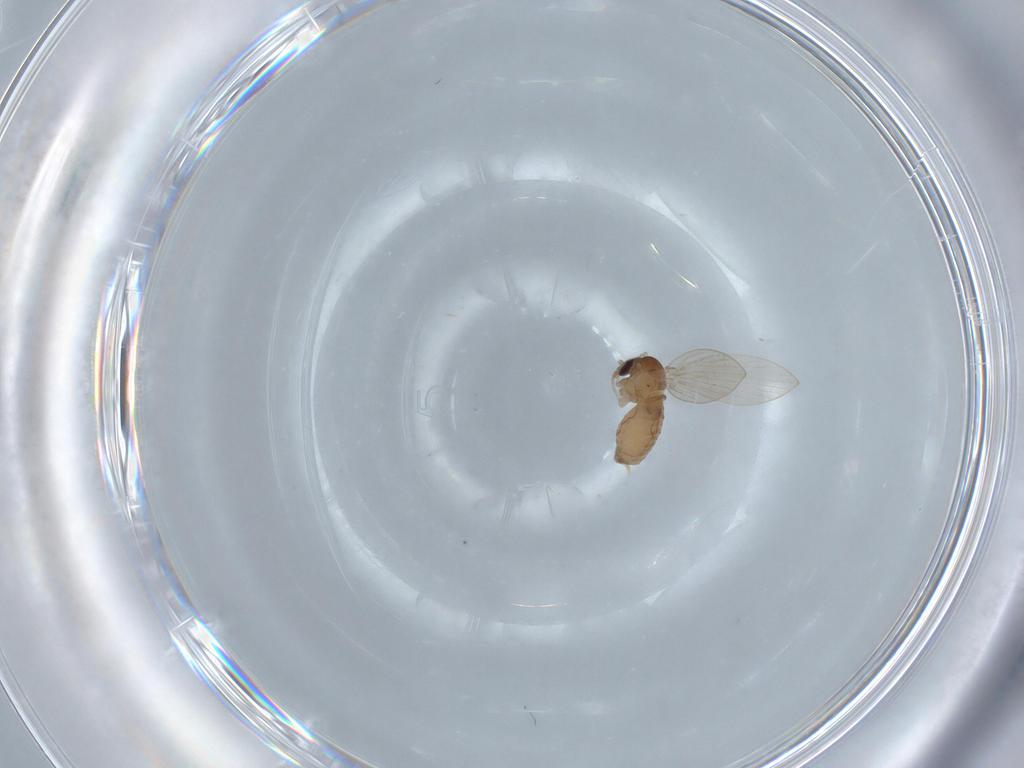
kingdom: Animalia
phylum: Arthropoda
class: Insecta
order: Diptera
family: Psychodidae
